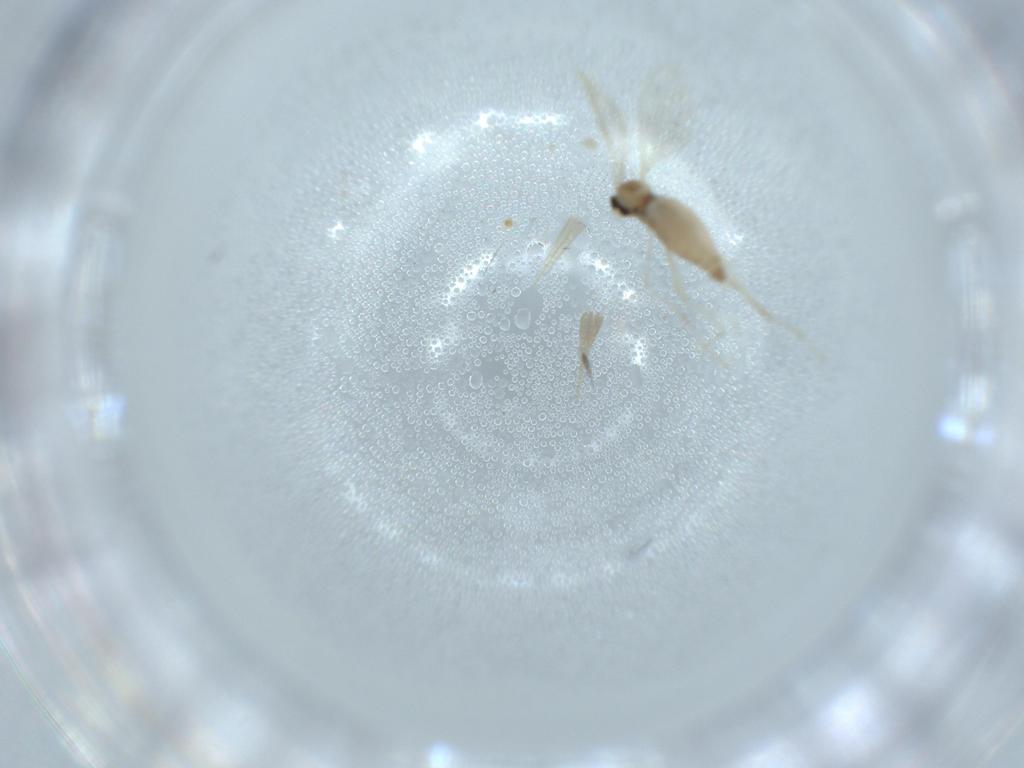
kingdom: Animalia
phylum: Arthropoda
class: Insecta
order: Diptera
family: Cecidomyiidae
